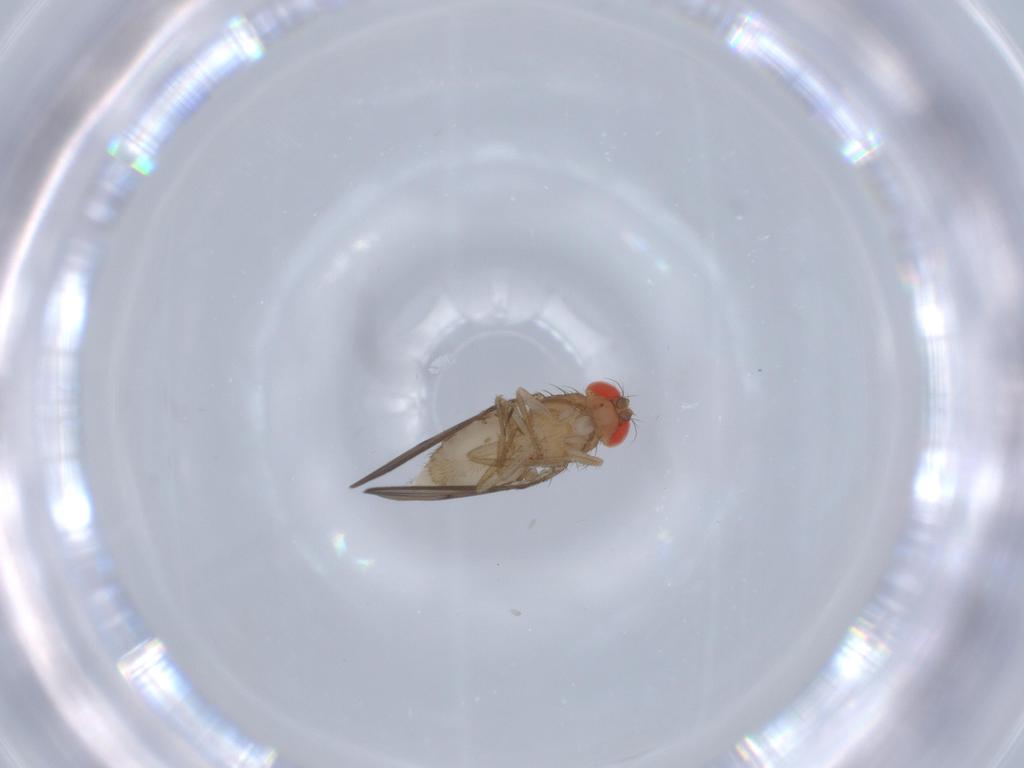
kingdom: Animalia
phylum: Arthropoda
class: Insecta
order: Diptera
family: Drosophilidae
